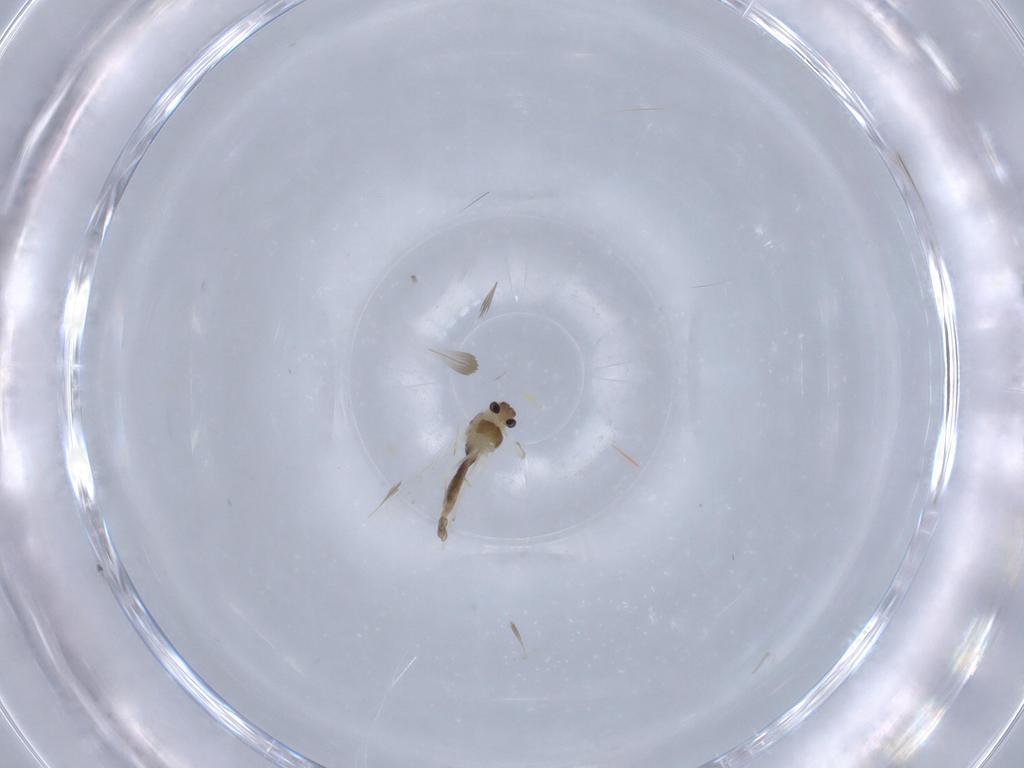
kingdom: Animalia
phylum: Arthropoda
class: Insecta
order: Diptera
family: Chironomidae
